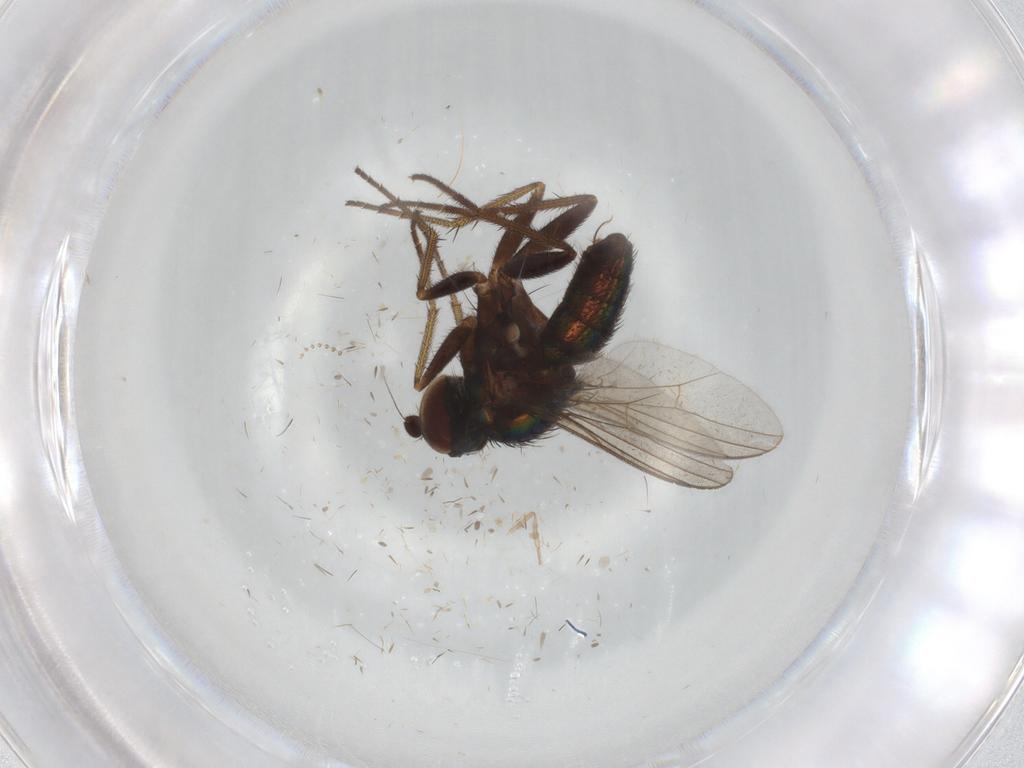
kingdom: Animalia
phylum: Arthropoda
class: Insecta
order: Diptera
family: Dolichopodidae
